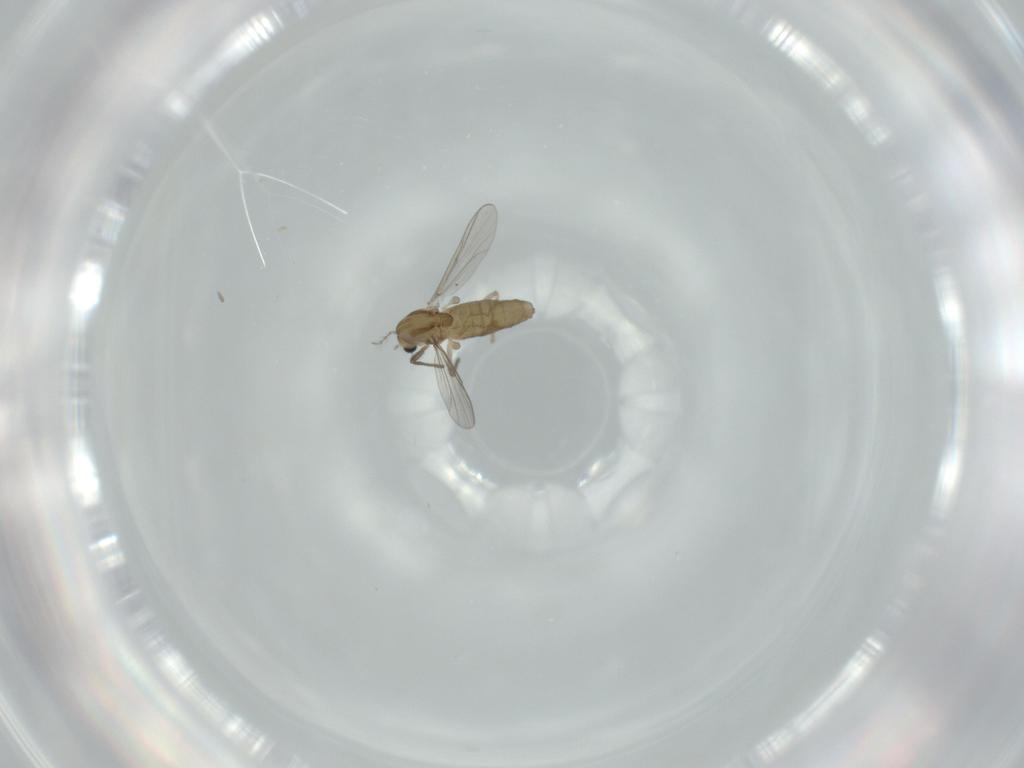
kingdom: Animalia
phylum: Arthropoda
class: Insecta
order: Diptera
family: Chironomidae
